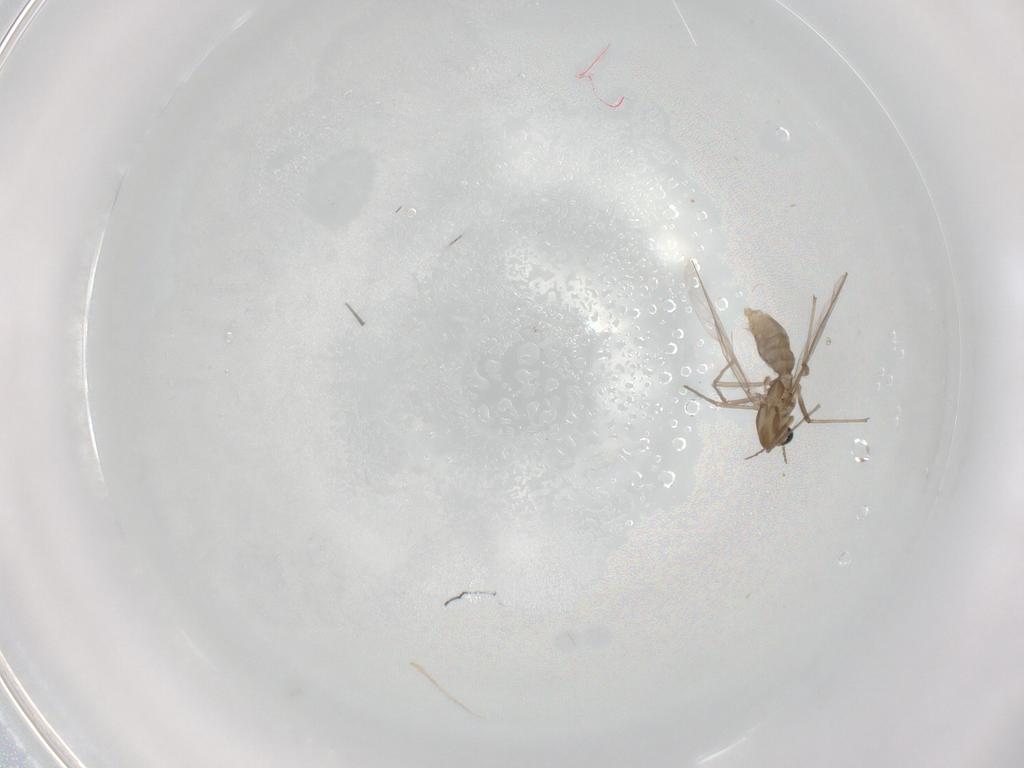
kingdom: Animalia
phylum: Arthropoda
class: Insecta
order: Diptera
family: Chironomidae
